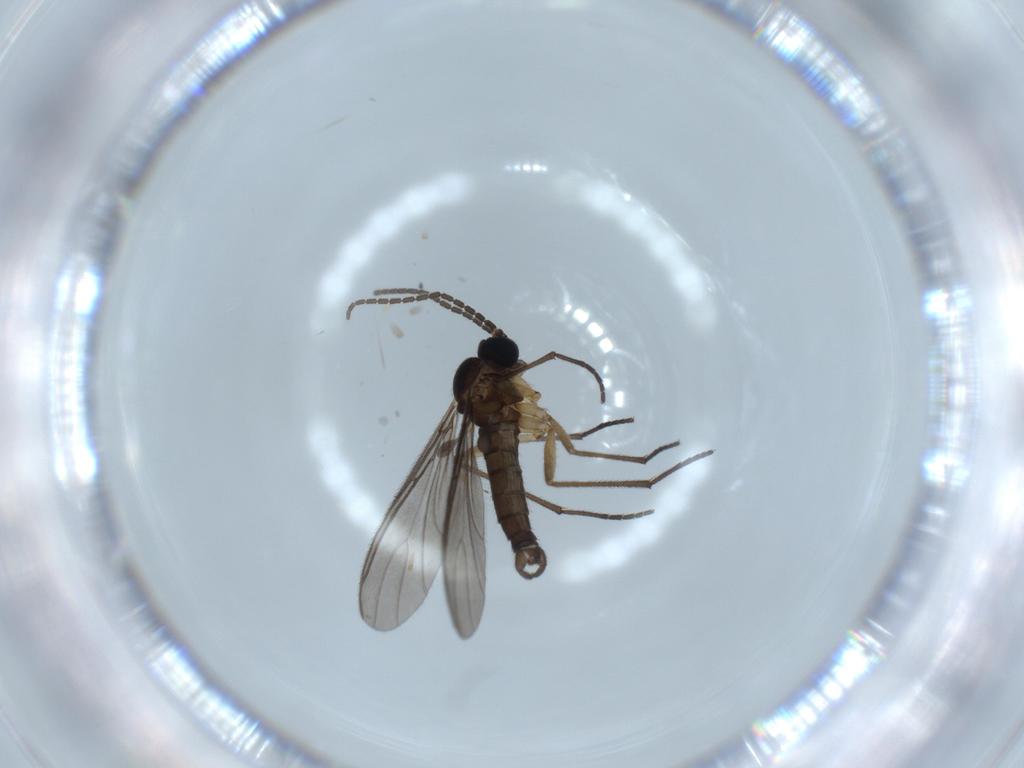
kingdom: Animalia
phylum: Arthropoda
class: Insecta
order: Diptera
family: Sciaridae
